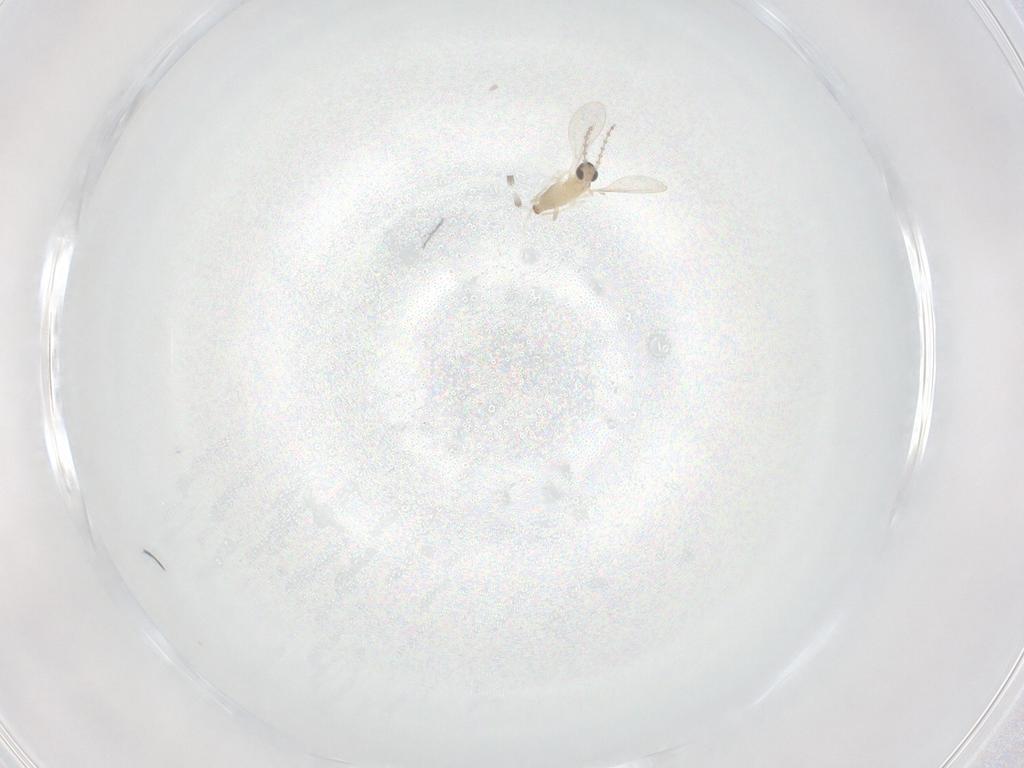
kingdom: Animalia
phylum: Arthropoda
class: Insecta
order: Diptera
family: Cecidomyiidae
